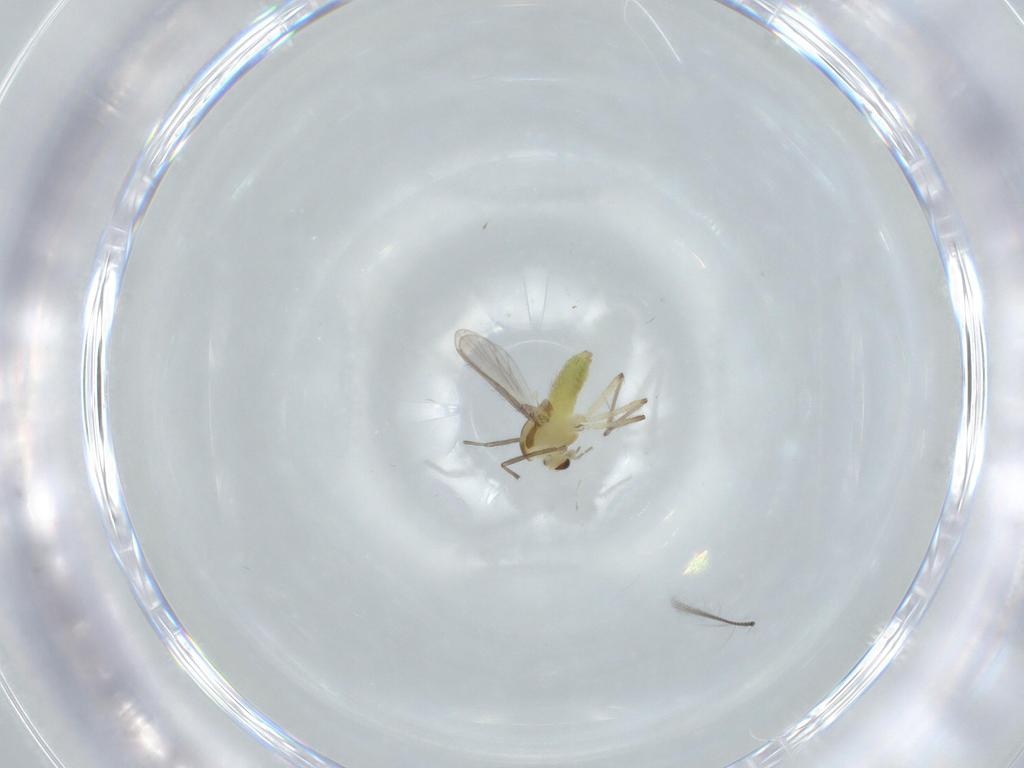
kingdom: Animalia
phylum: Arthropoda
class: Insecta
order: Diptera
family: Chironomidae
